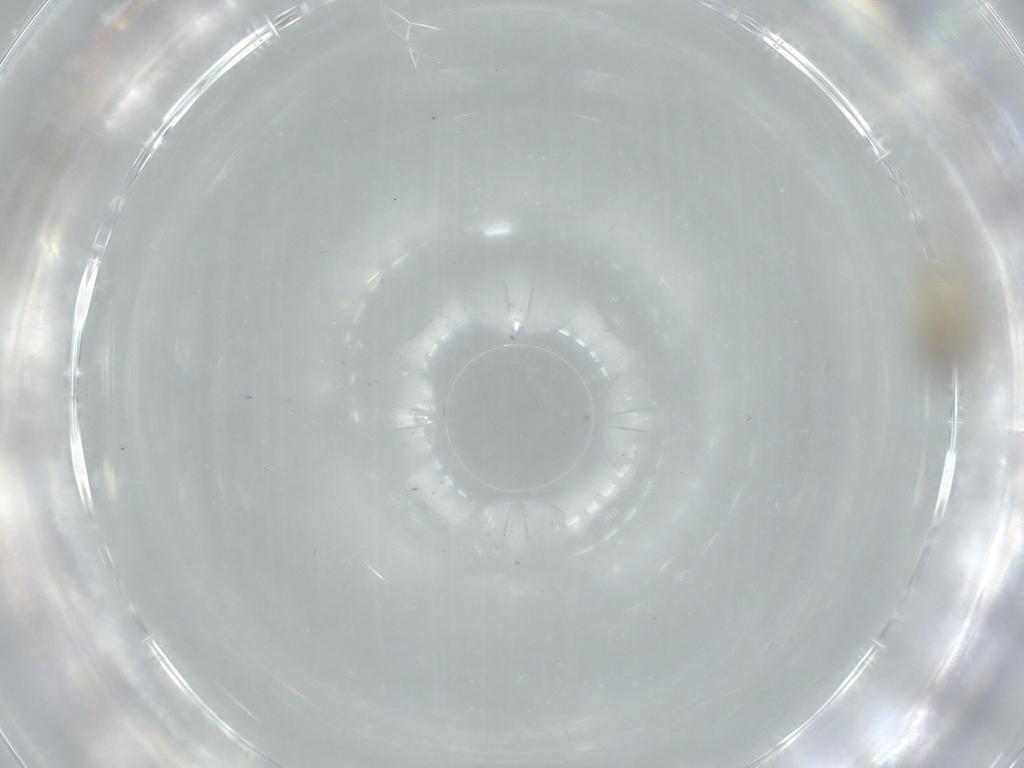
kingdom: Animalia
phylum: Arthropoda
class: Insecta
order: Diptera
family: Cecidomyiidae
